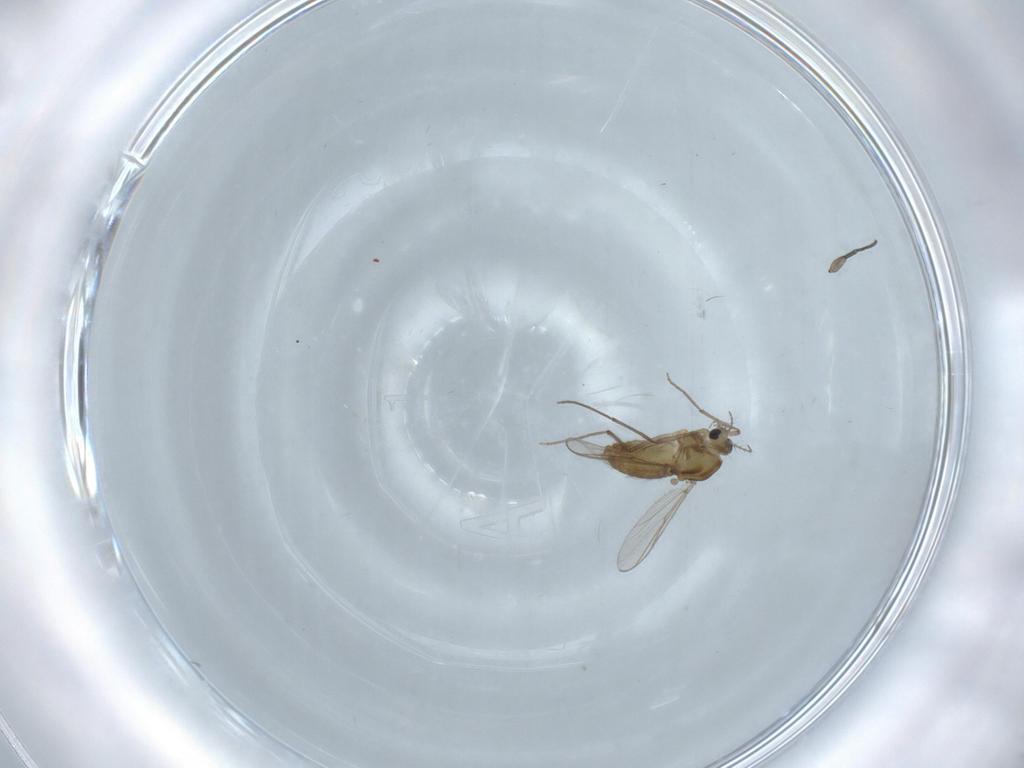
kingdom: Animalia
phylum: Arthropoda
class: Insecta
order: Diptera
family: Chironomidae
